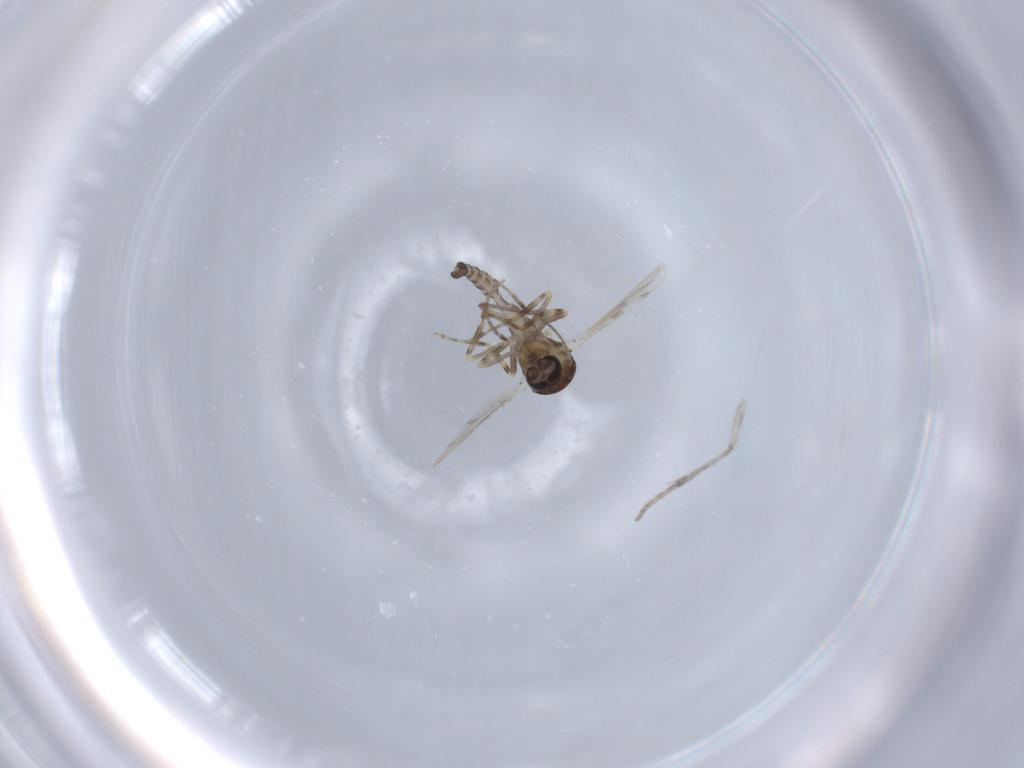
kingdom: Animalia
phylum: Arthropoda
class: Insecta
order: Diptera
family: Ceratopogonidae
